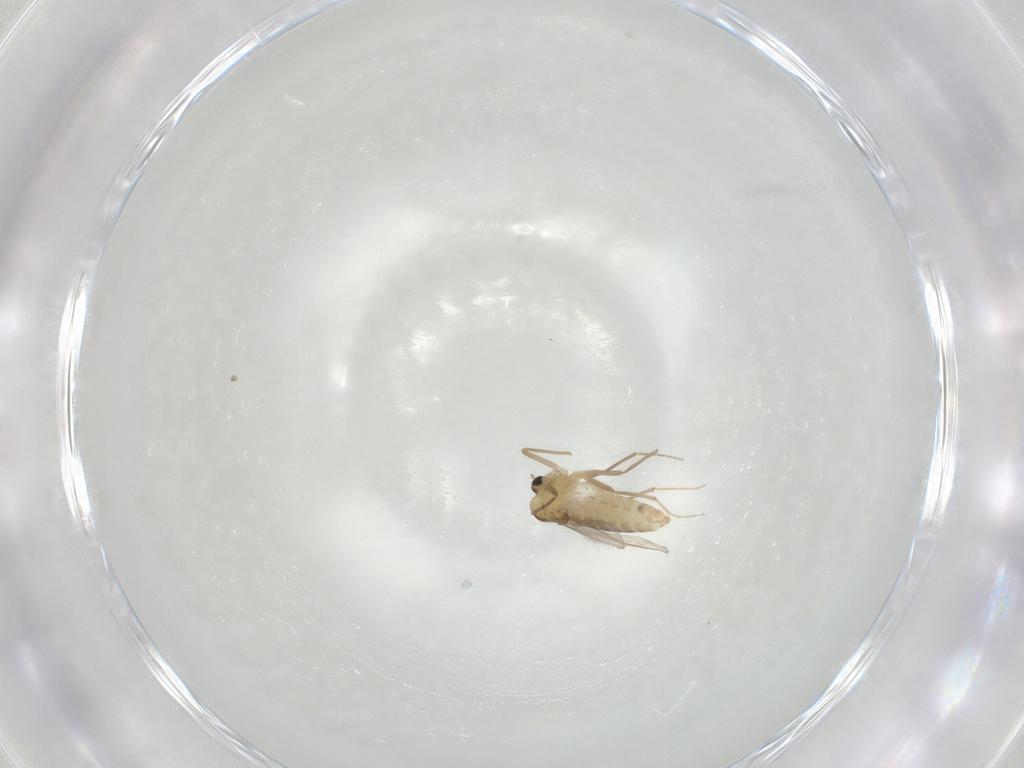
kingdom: Animalia
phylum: Arthropoda
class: Insecta
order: Diptera
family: Chironomidae
